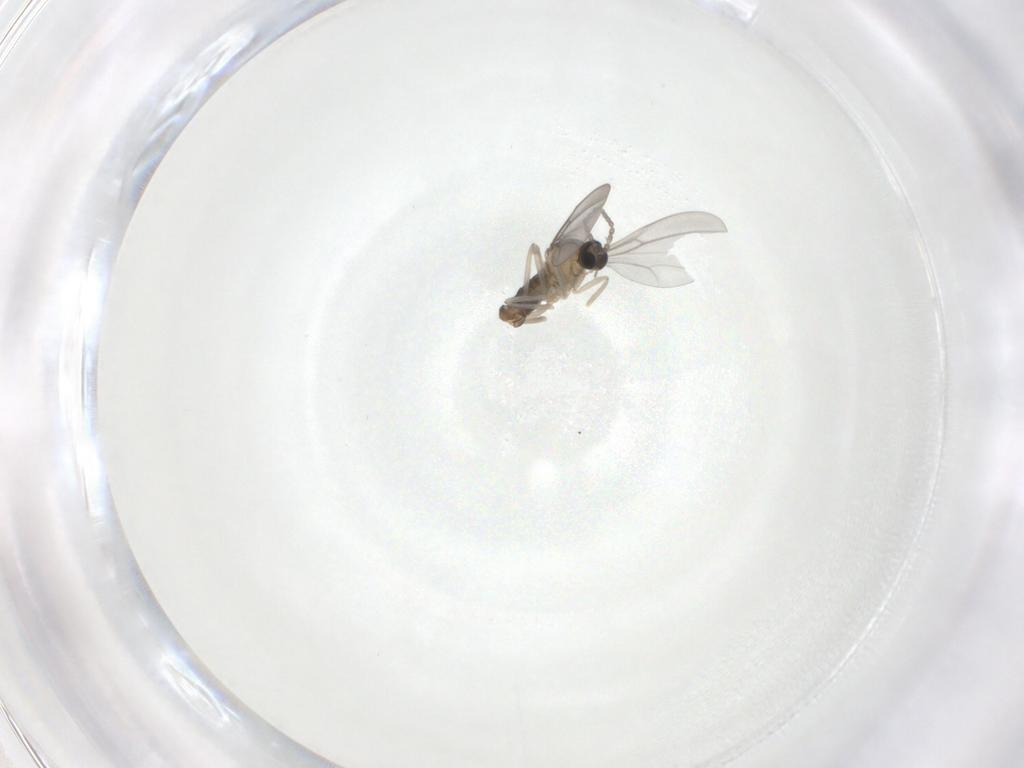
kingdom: Animalia
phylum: Arthropoda
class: Insecta
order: Diptera
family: Cecidomyiidae
